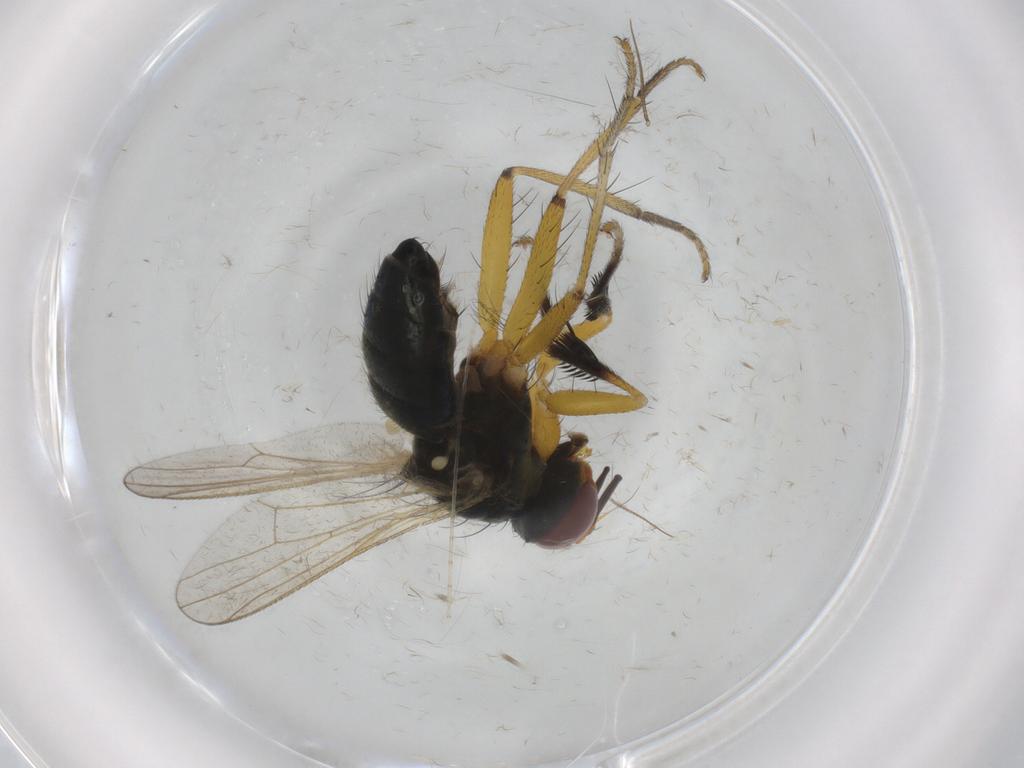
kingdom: Animalia
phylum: Arthropoda
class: Insecta
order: Diptera
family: Muscidae
